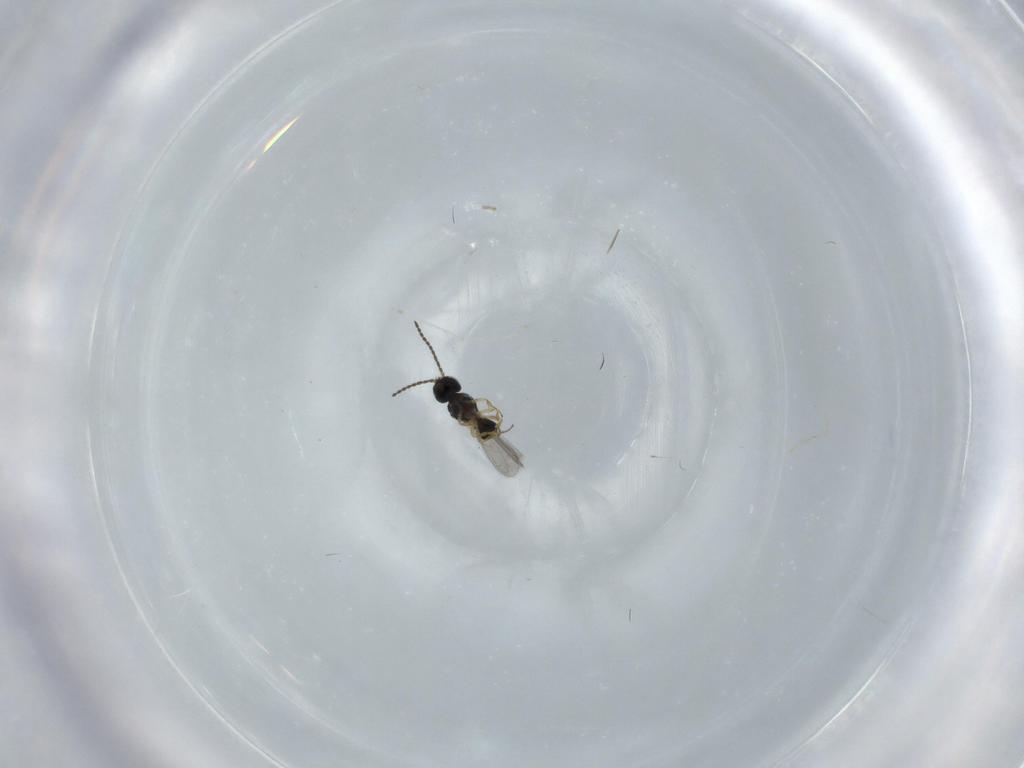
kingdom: Animalia
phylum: Arthropoda
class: Insecta
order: Hymenoptera
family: Scelionidae
